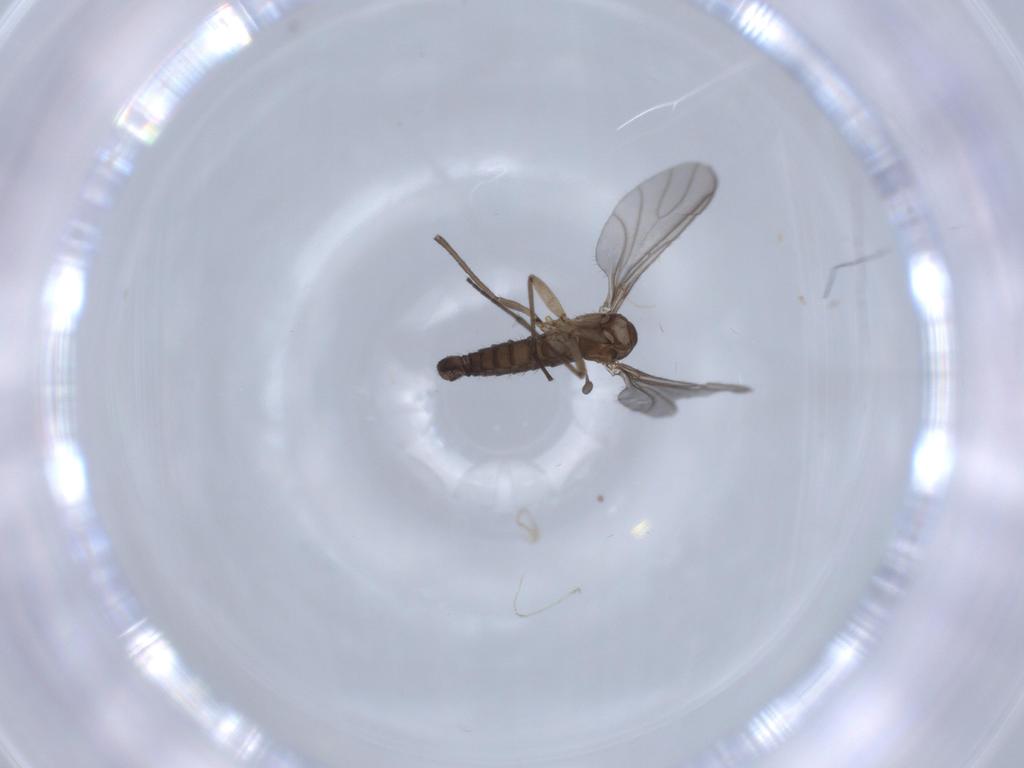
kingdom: Animalia
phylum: Arthropoda
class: Insecta
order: Diptera
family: Sciaridae
